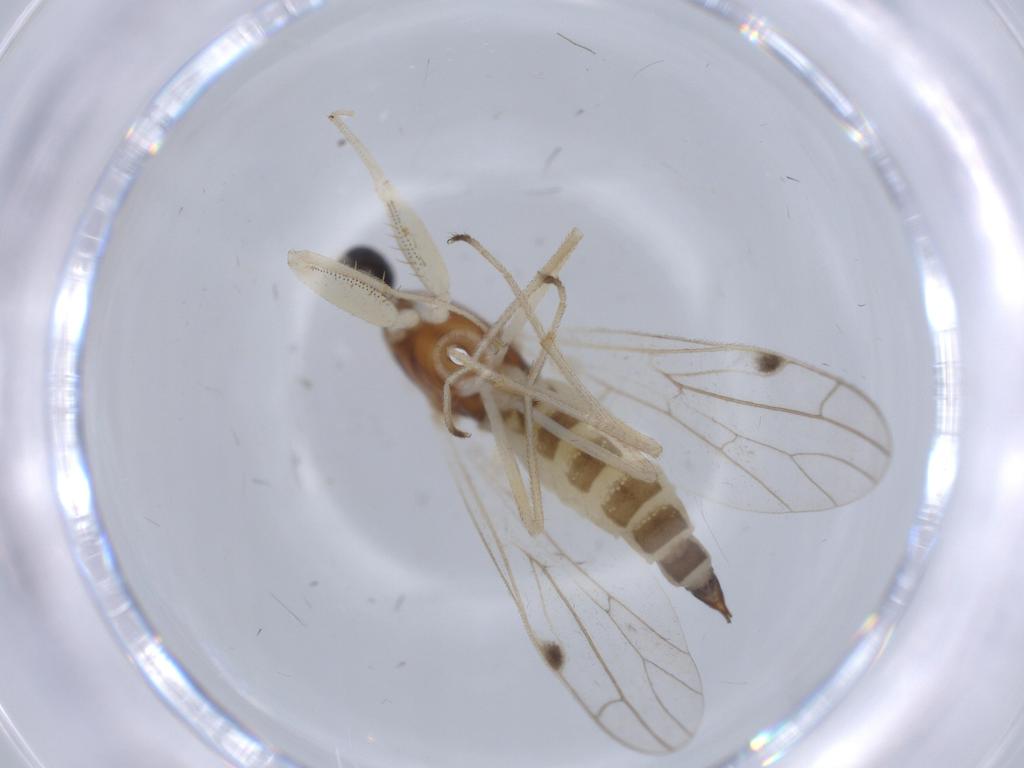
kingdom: Animalia
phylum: Arthropoda
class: Insecta
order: Diptera
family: Empididae
